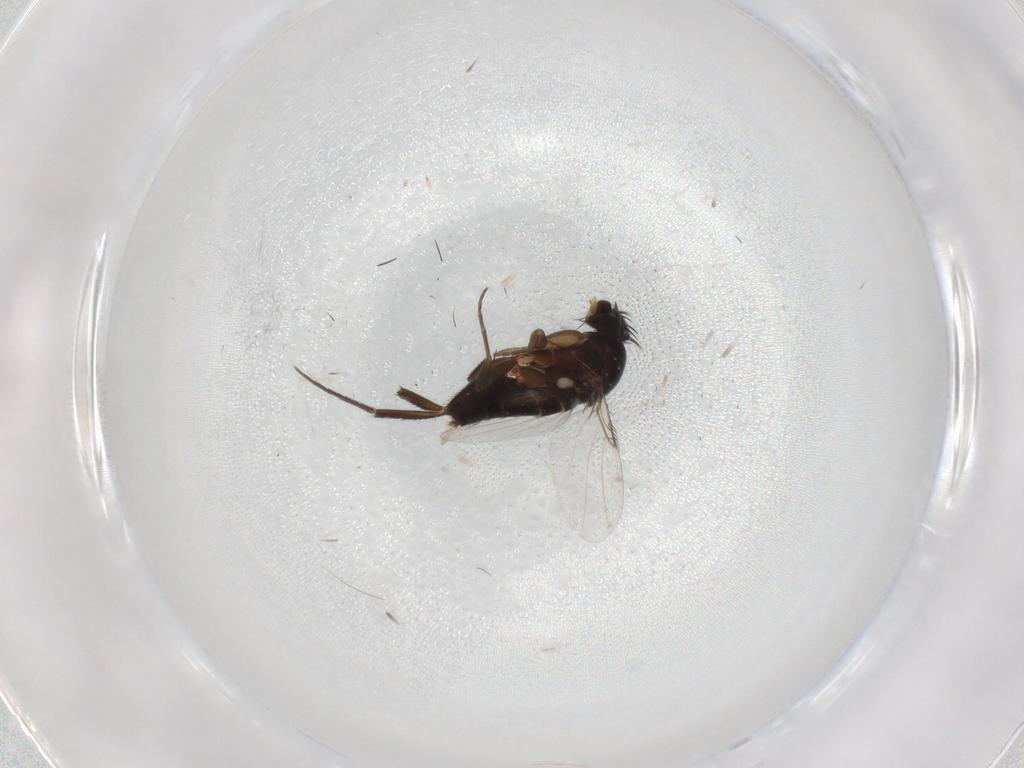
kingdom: Animalia
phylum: Arthropoda
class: Insecta
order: Diptera
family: Phoridae
